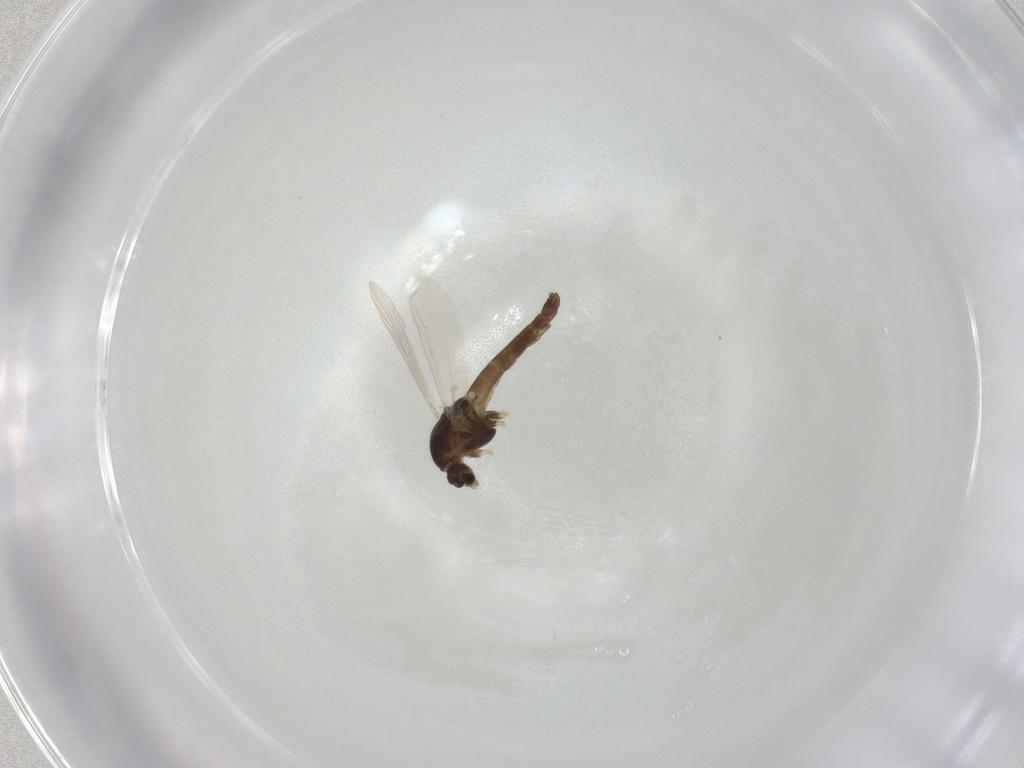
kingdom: Animalia
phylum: Arthropoda
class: Insecta
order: Diptera
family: Chironomidae
